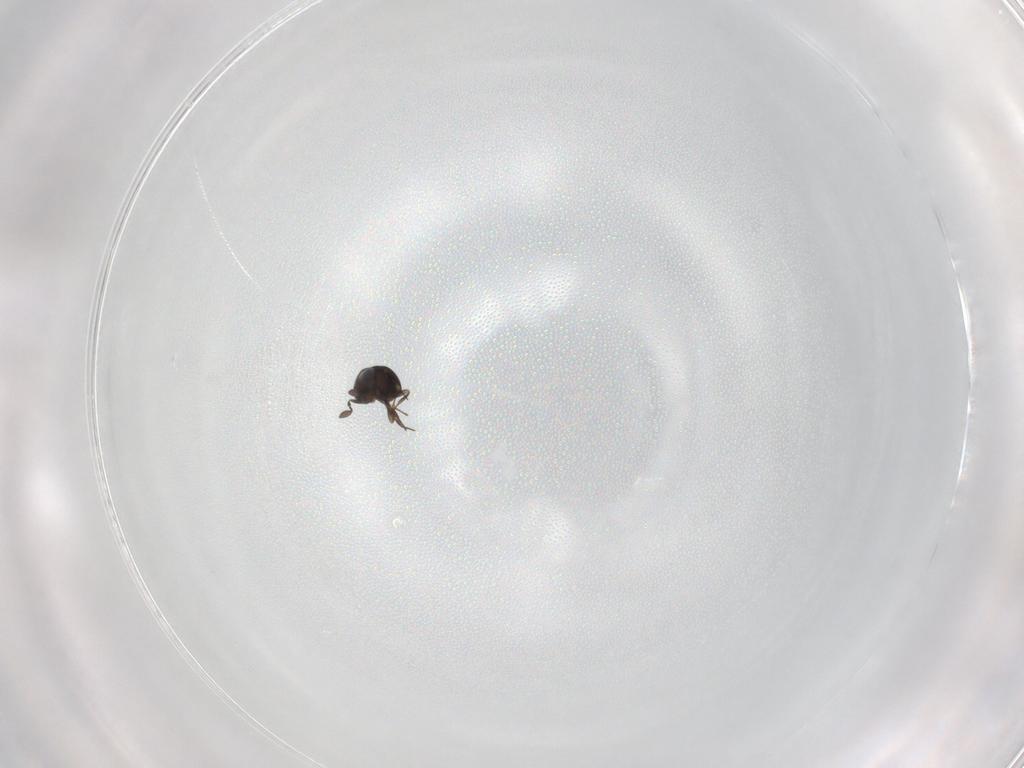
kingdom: Animalia
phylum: Arthropoda
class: Insecta
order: Hymenoptera
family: Scelionidae
